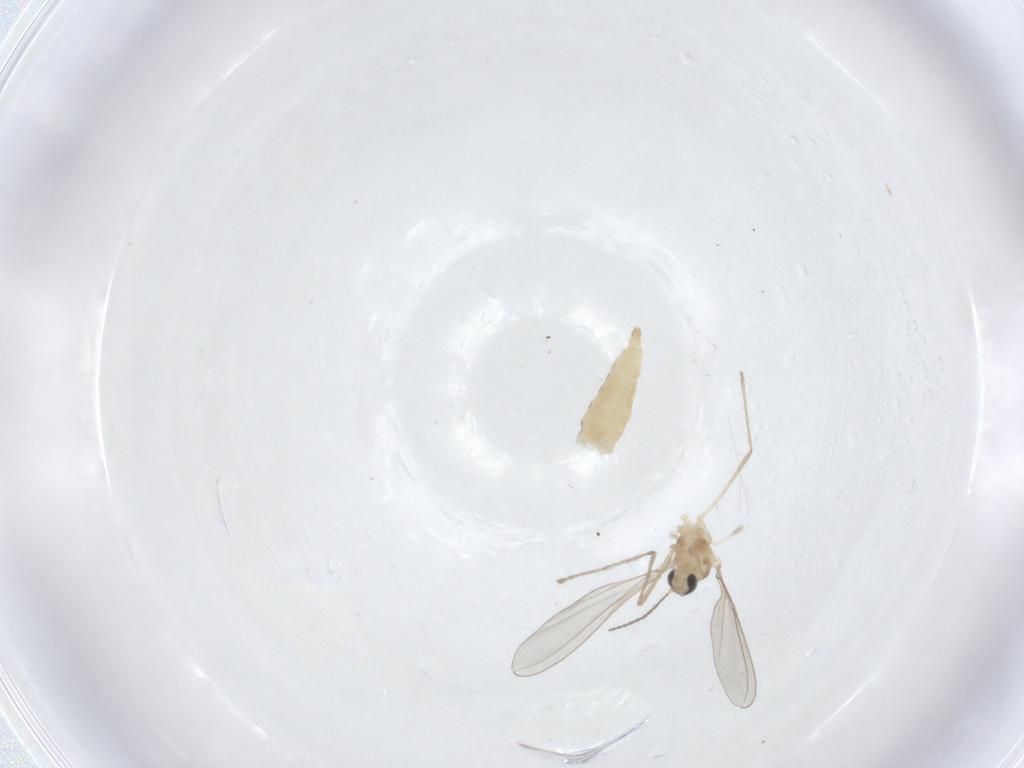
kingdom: Animalia
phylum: Arthropoda
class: Insecta
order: Diptera
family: Cecidomyiidae
